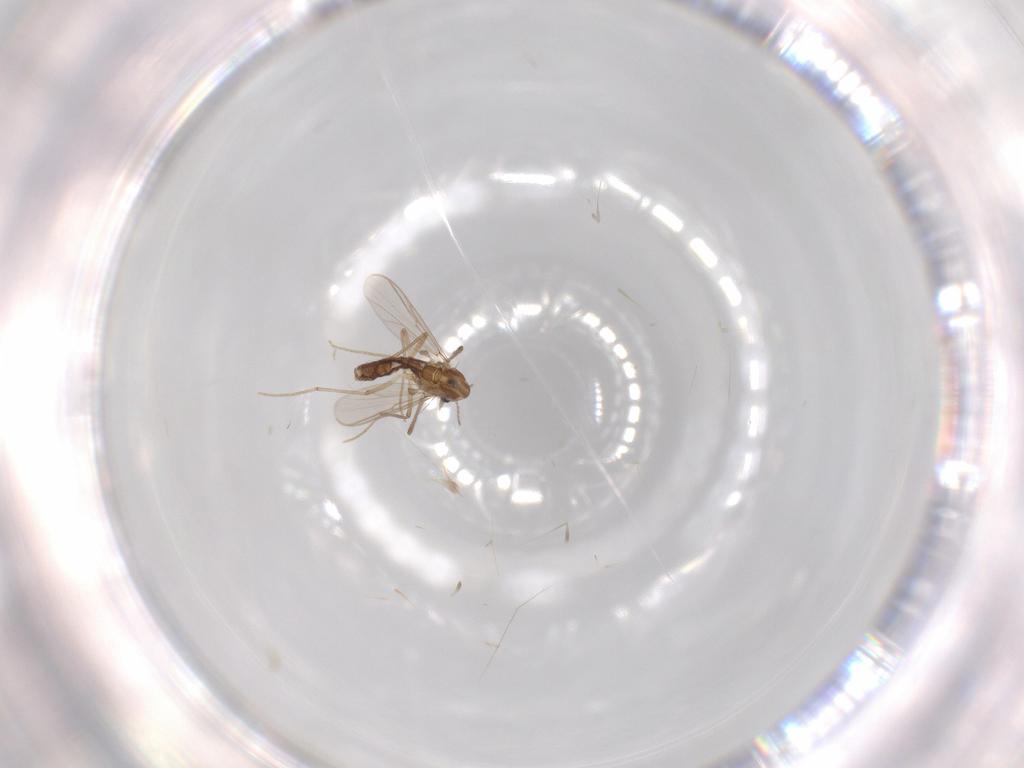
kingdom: Animalia
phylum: Arthropoda
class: Insecta
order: Diptera
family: Chironomidae
